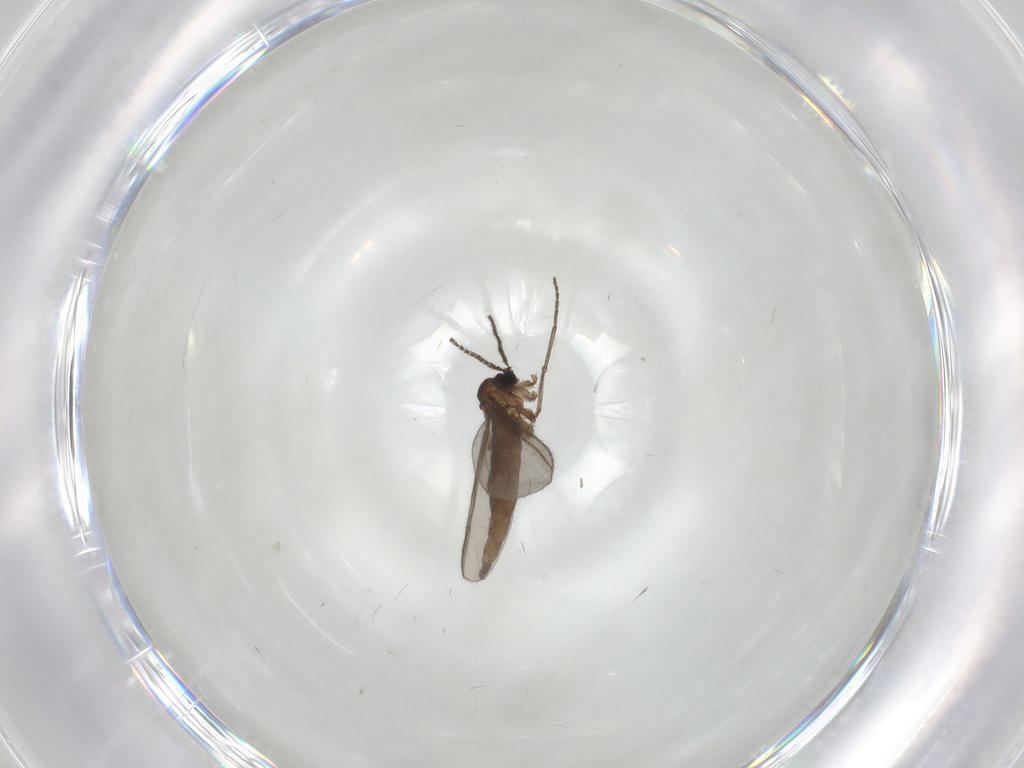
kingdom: Animalia
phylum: Arthropoda
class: Insecta
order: Diptera
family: Sciaridae
